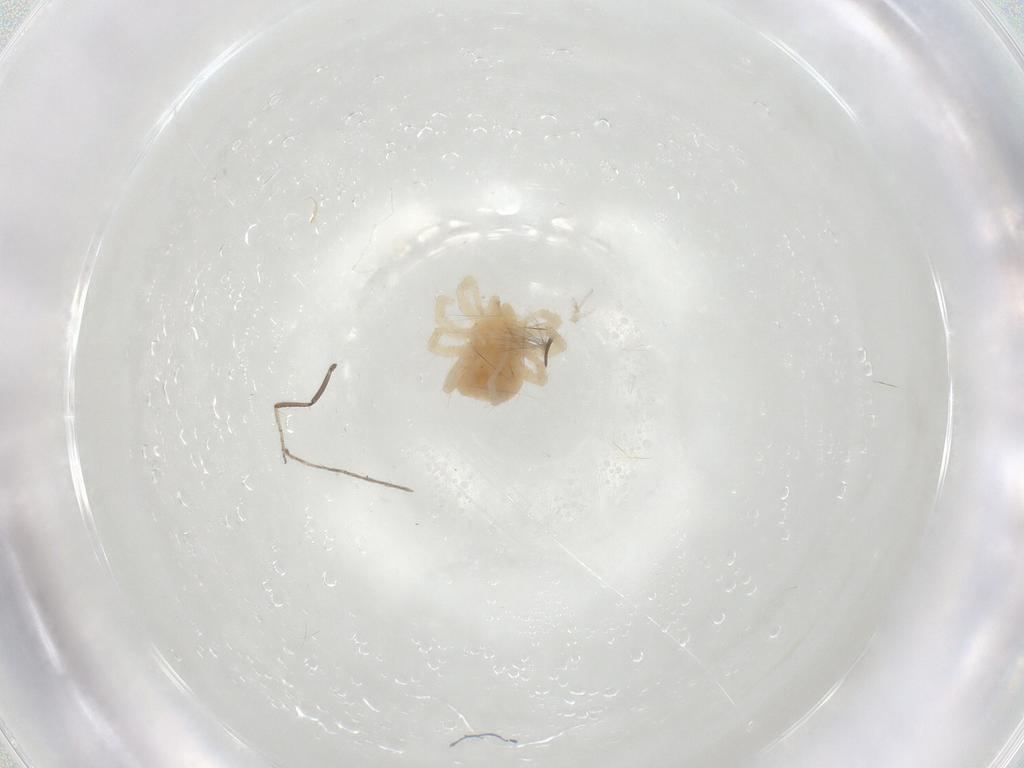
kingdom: Animalia
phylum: Arthropoda
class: Arachnida
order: Trombidiformes
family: Anystidae
